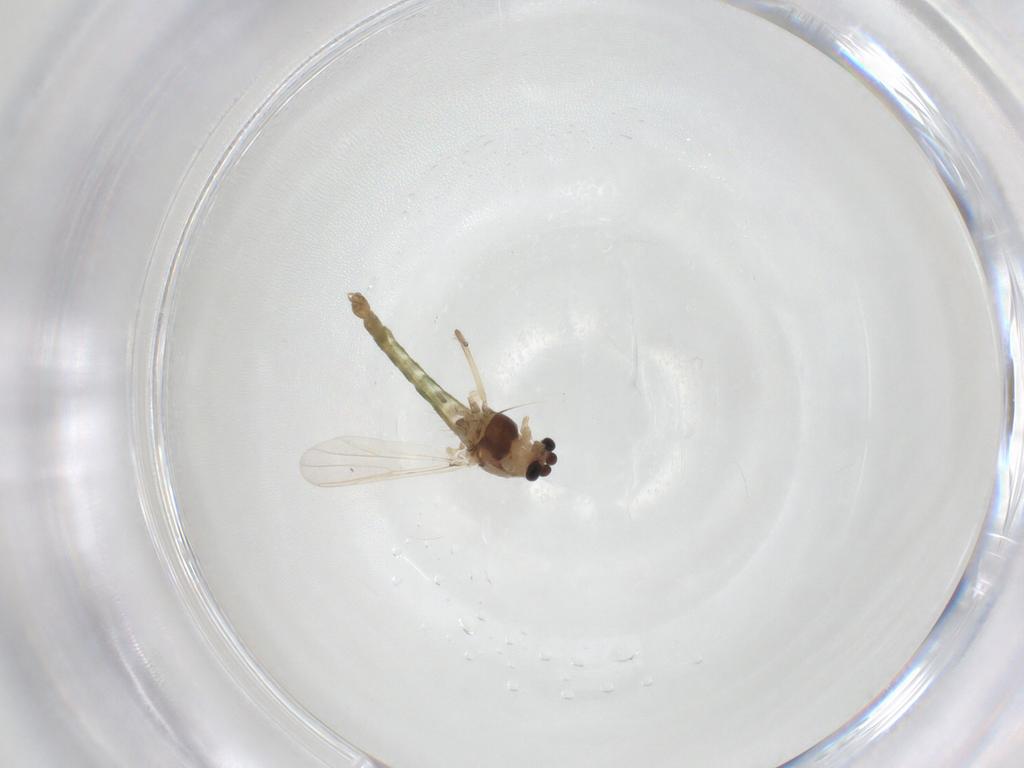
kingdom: Animalia
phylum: Arthropoda
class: Insecta
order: Diptera
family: Chironomidae
